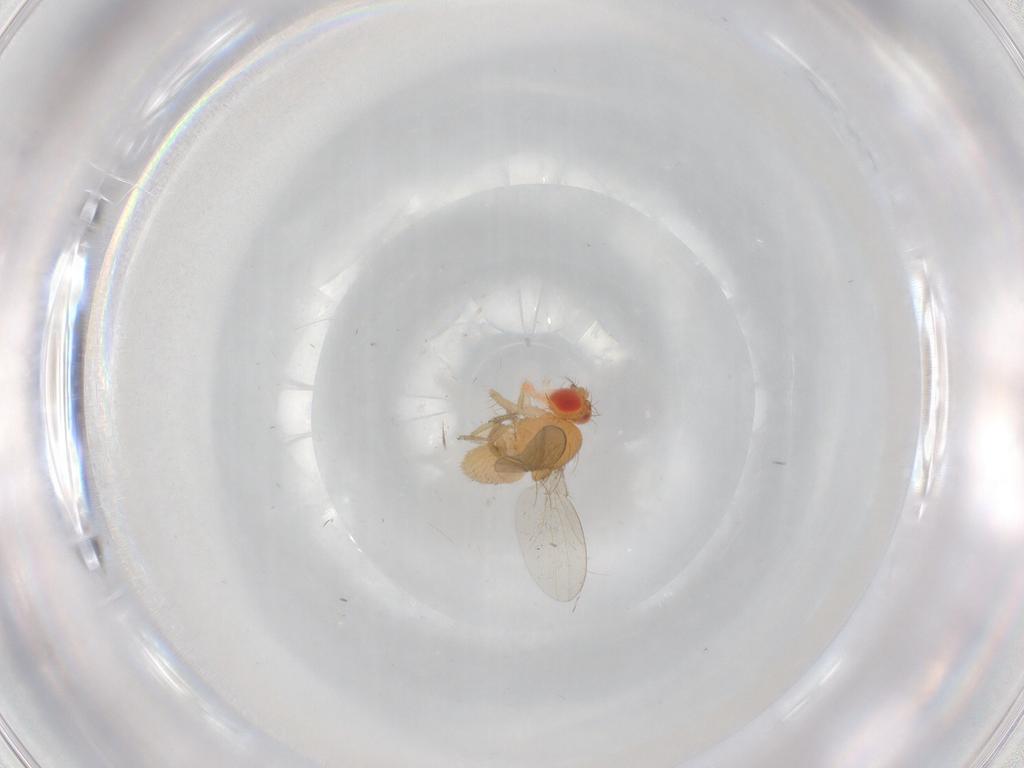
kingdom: Animalia
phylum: Arthropoda
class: Insecta
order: Diptera
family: Drosophilidae
